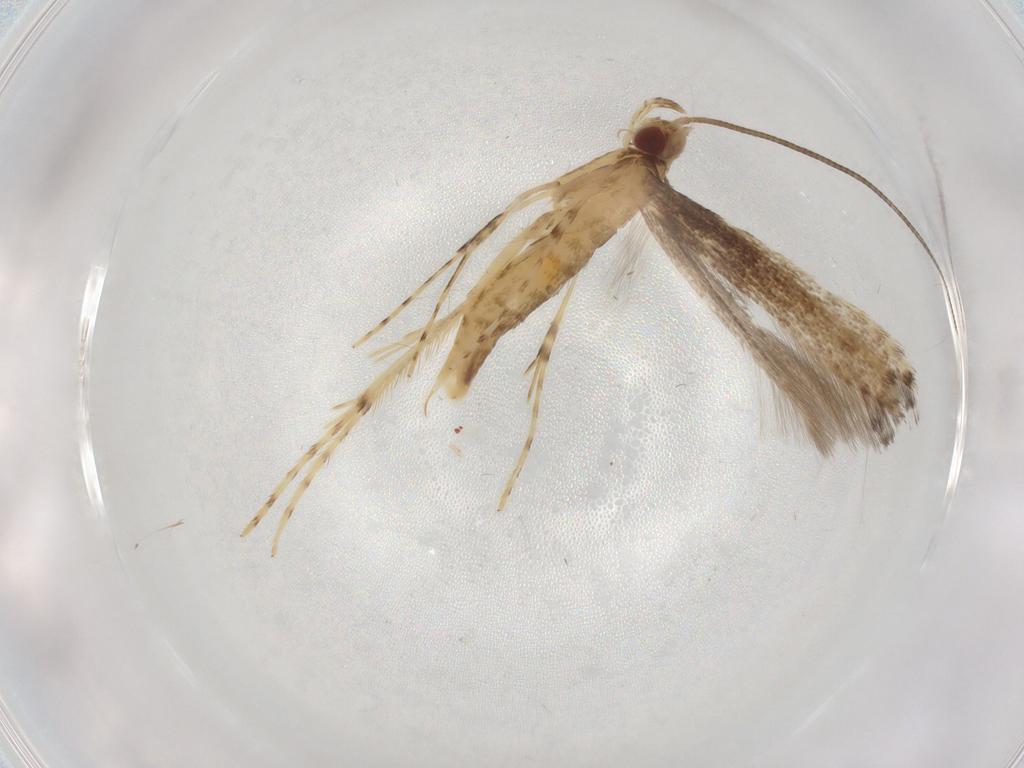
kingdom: Animalia
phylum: Arthropoda
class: Insecta
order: Lepidoptera
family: Gracillariidae
